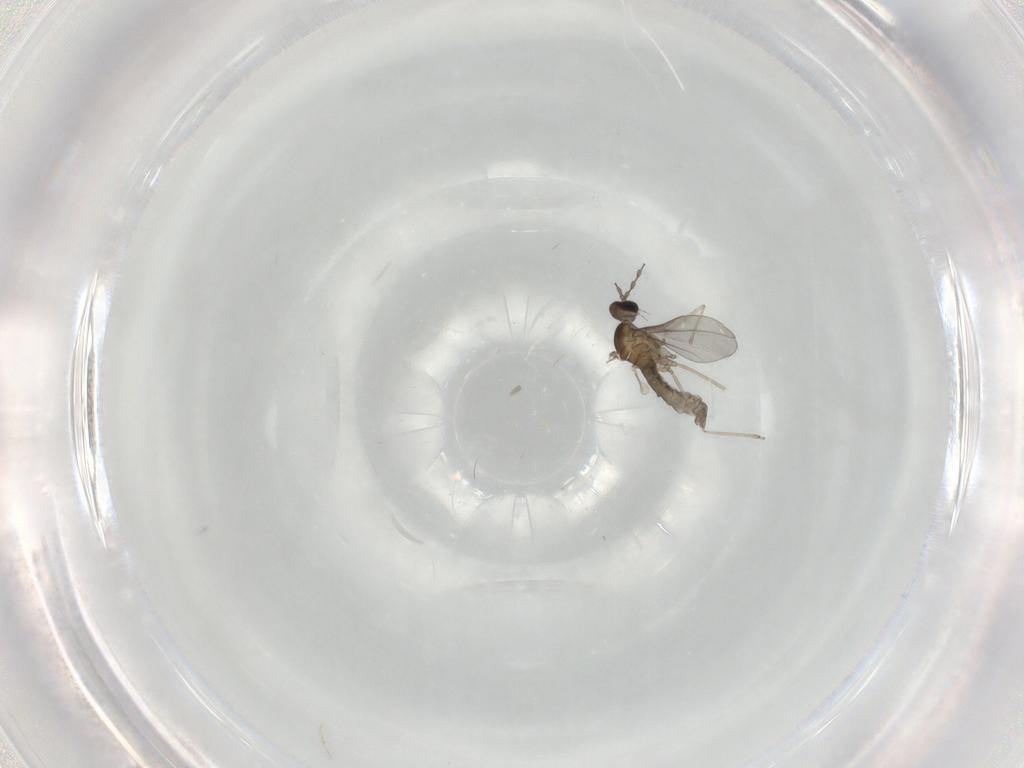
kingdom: Animalia
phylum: Arthropoda
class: Insecta
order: Diptera
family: Cecidomyiidae
